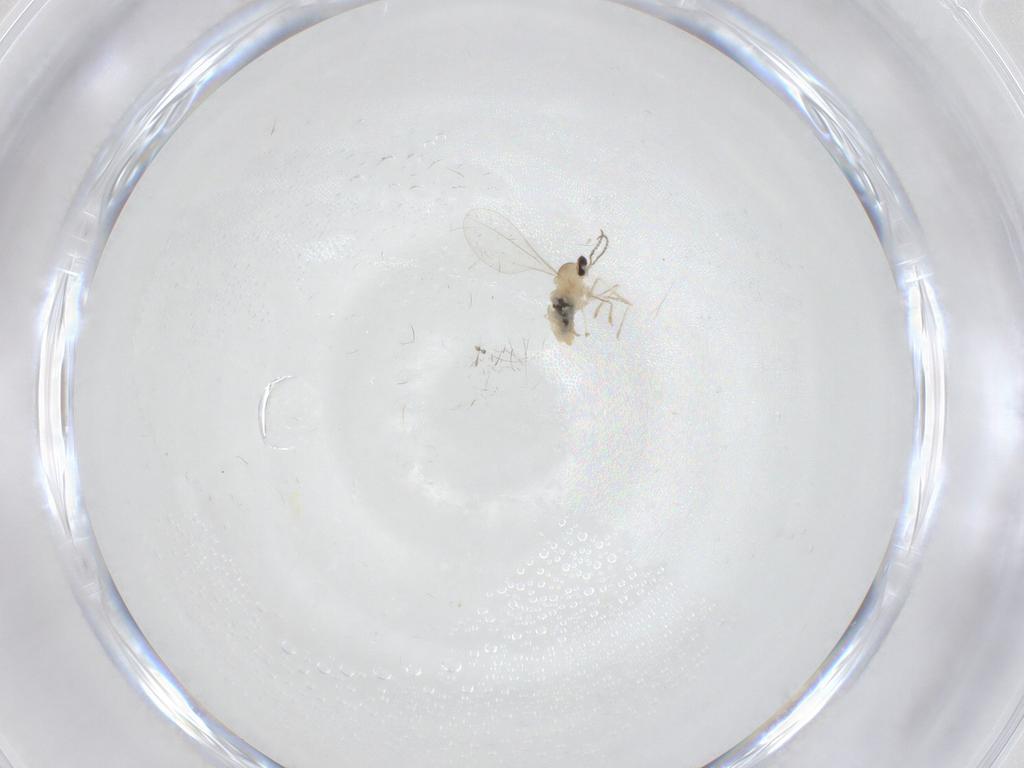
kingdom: Animalia
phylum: Arthropoda
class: Insecta
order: Diptera
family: Cecidomyiidae
